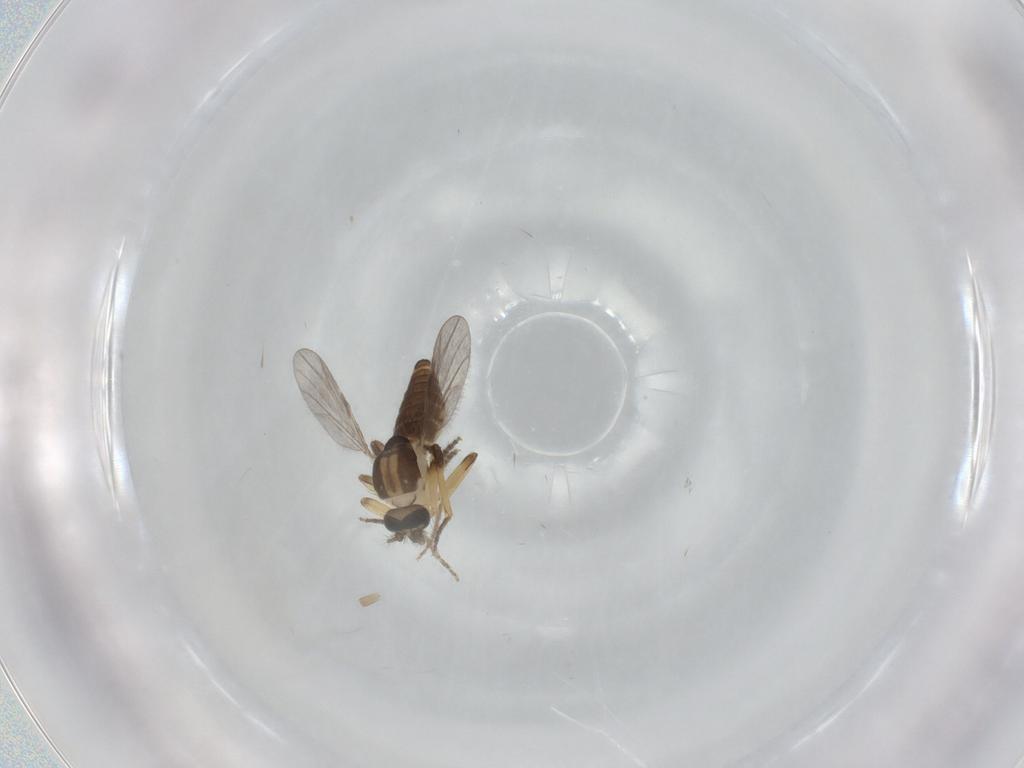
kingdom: Animalia
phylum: Arthropoda
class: Insecta
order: Diptera
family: Ceratopogonidae
